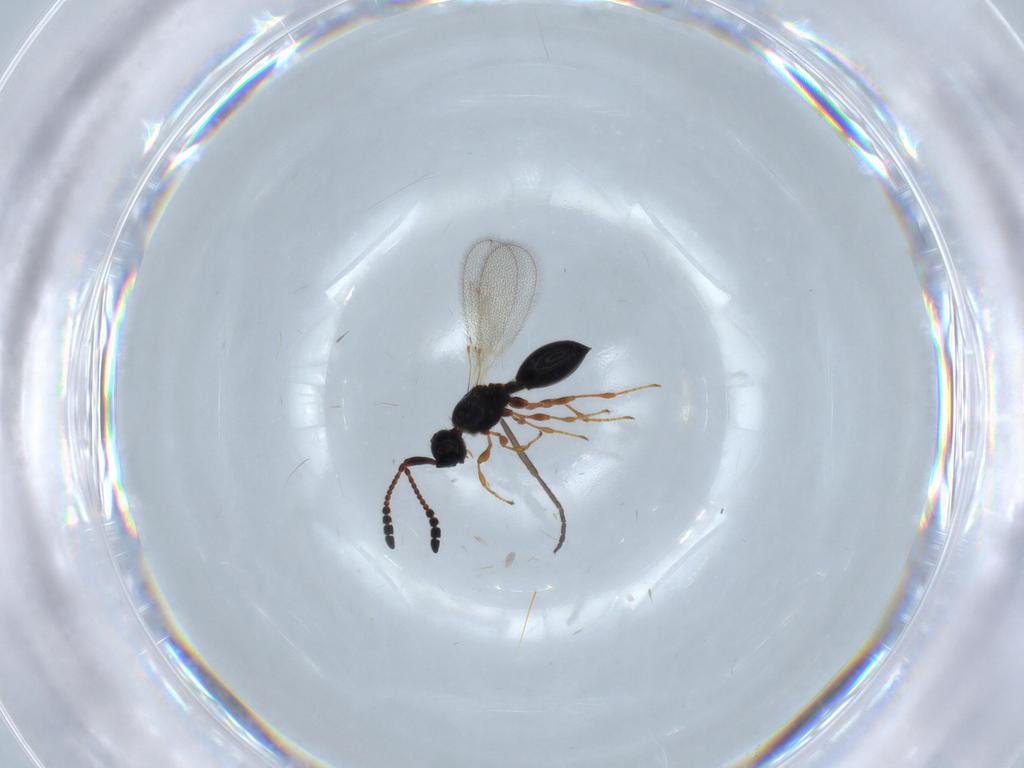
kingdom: Animalia
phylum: Arthropoda
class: Insecta
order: Hymenoptera
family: Diapriidae
